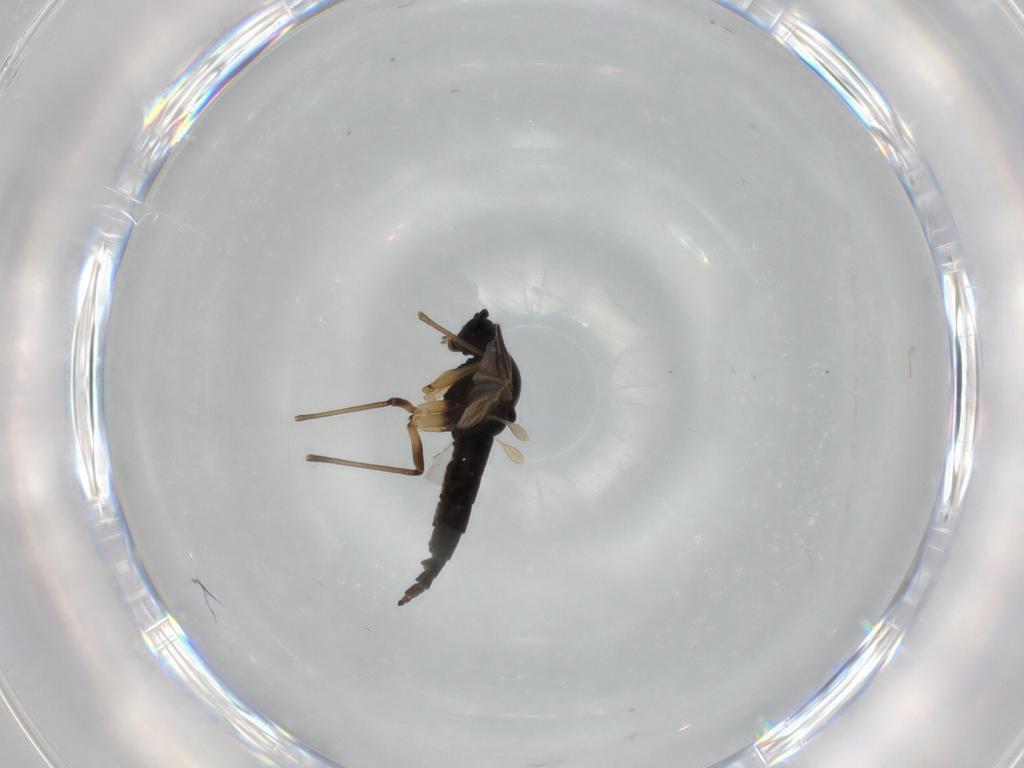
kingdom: Animalia
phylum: Arthropoda
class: Insecta
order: Diptera
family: Sciaridae
